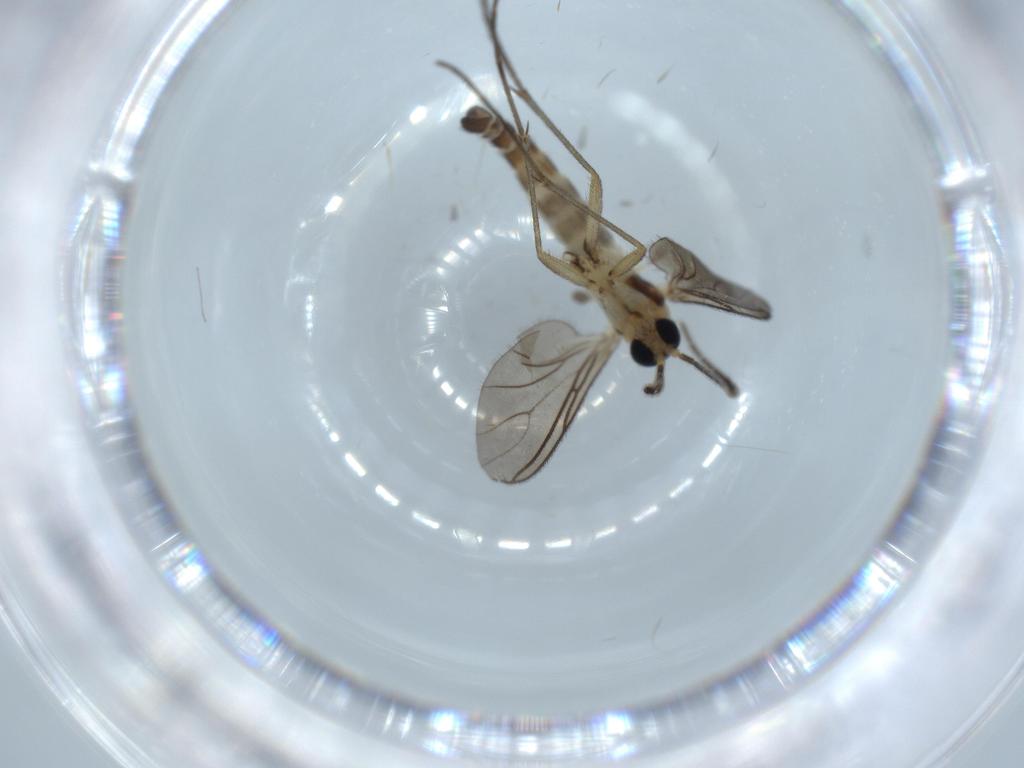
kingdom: Animalia
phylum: Arthropoda
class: Insecta
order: Diptera
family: Sciaridae
